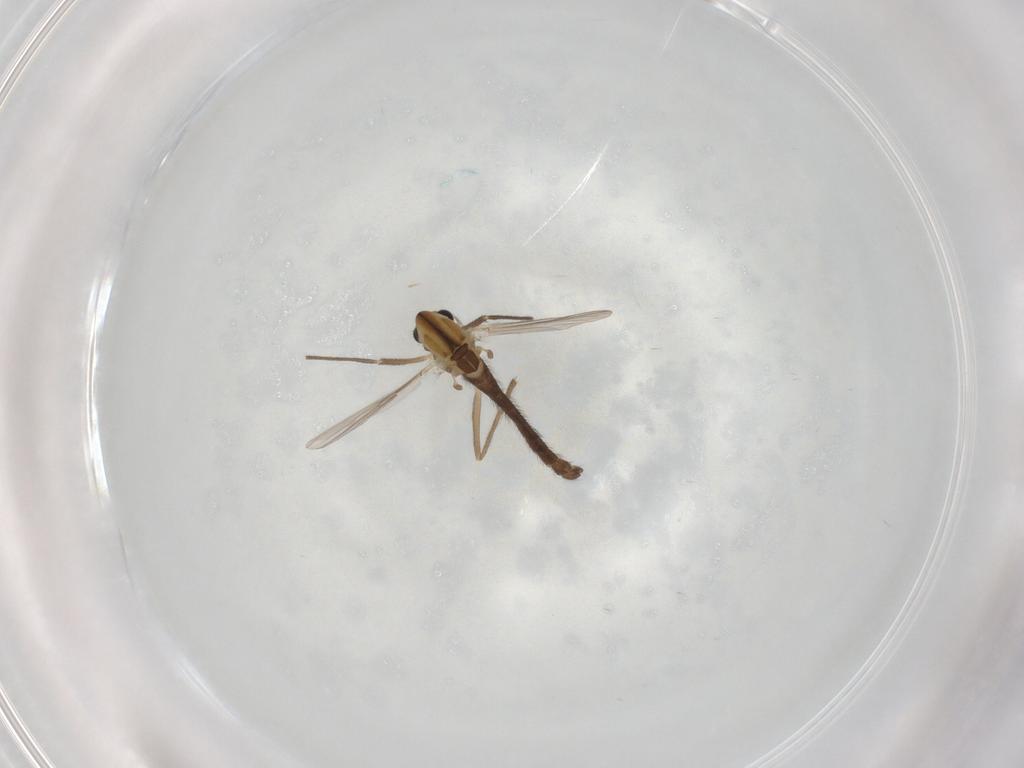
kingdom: Animalia
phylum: Arthropoda
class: Insecta
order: Diptera
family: Chironomidae
